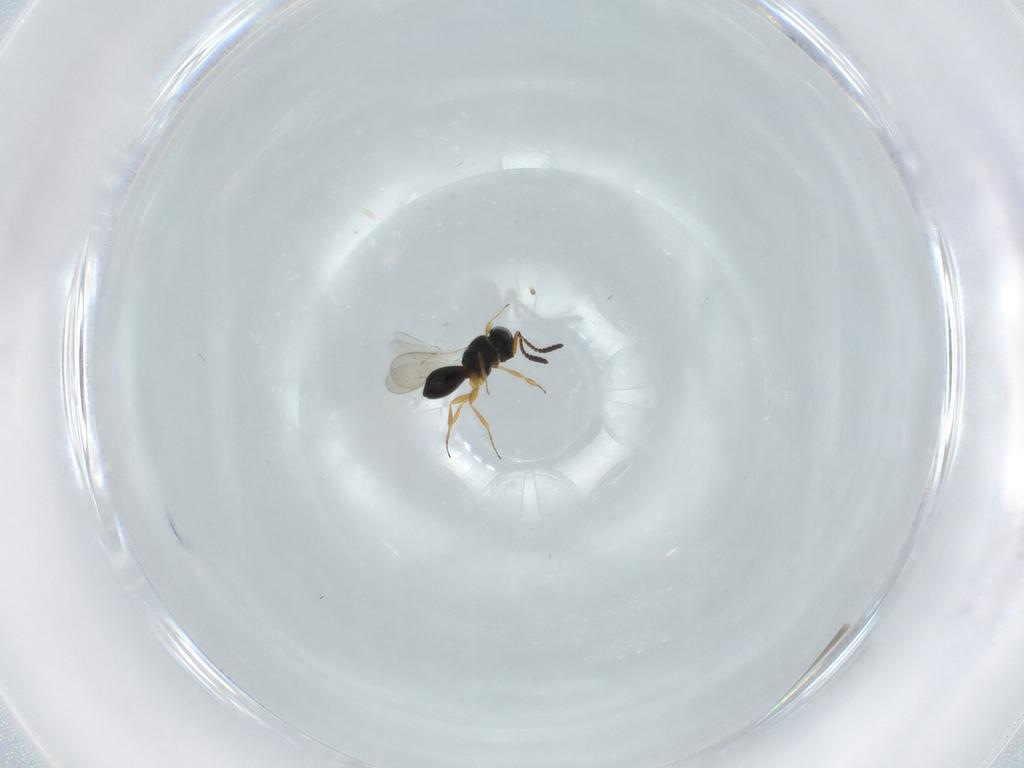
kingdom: Animalia
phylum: Arthropoda
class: Insecta
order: Hymenoptera
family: Scelionidae
